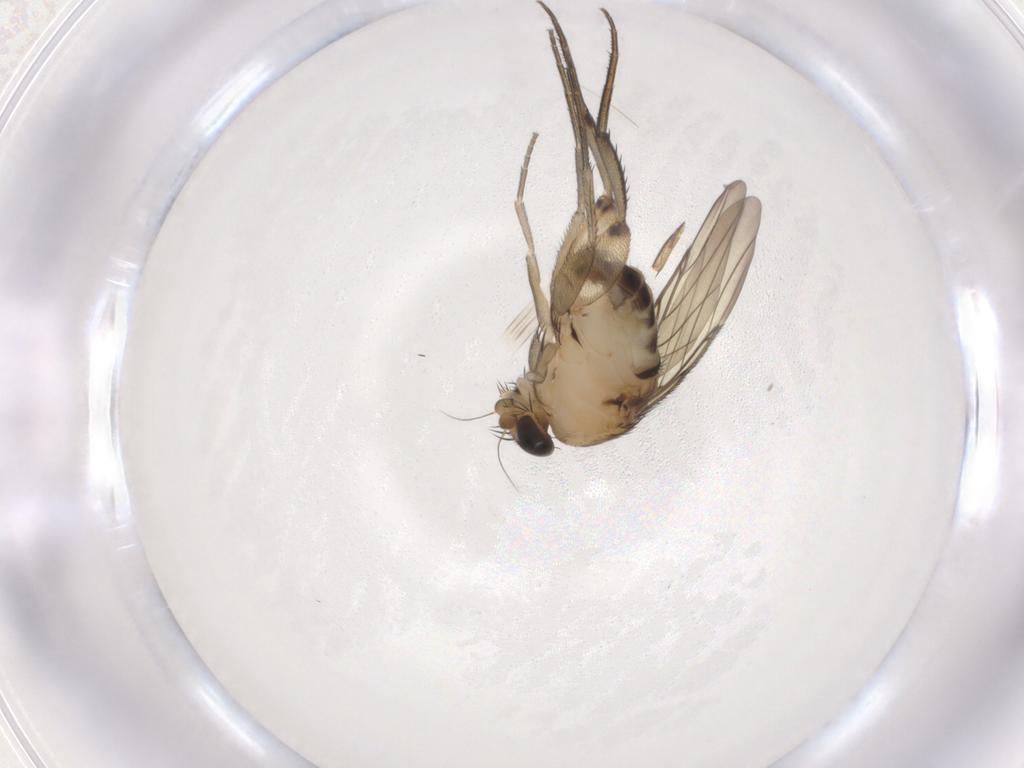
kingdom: Animalia
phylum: Arthropoda
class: Insecta
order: Diptera
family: Phoridae
